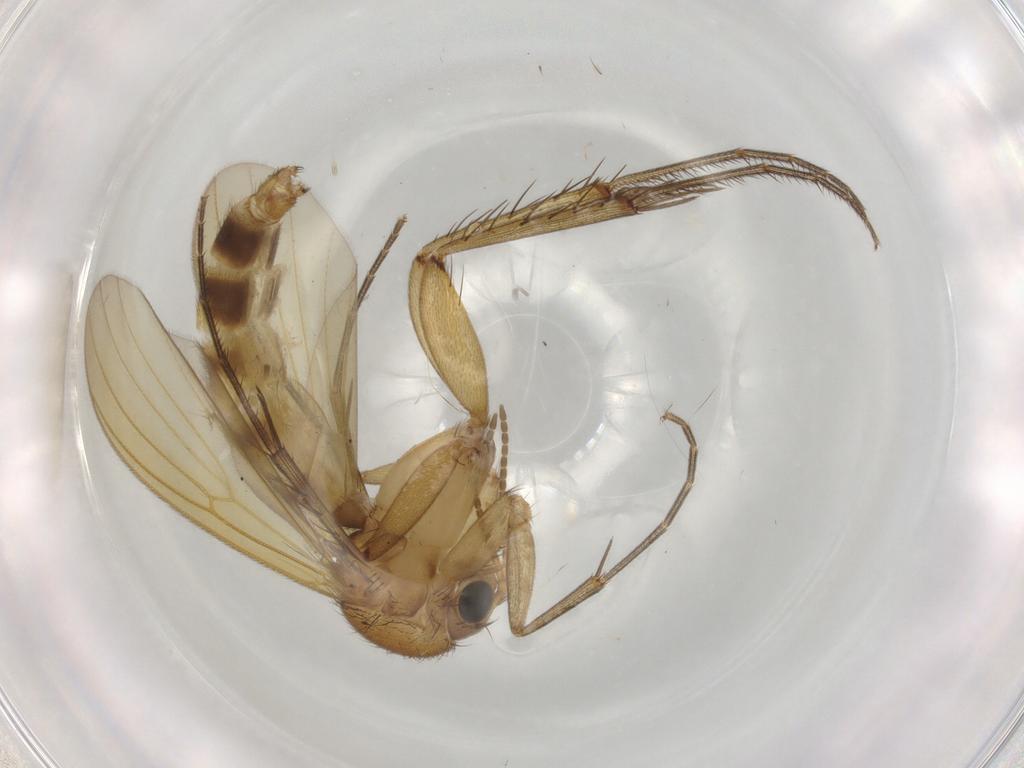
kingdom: Animalia
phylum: Arthropoda
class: Insecta
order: Diptera
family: Mycetophilidae
